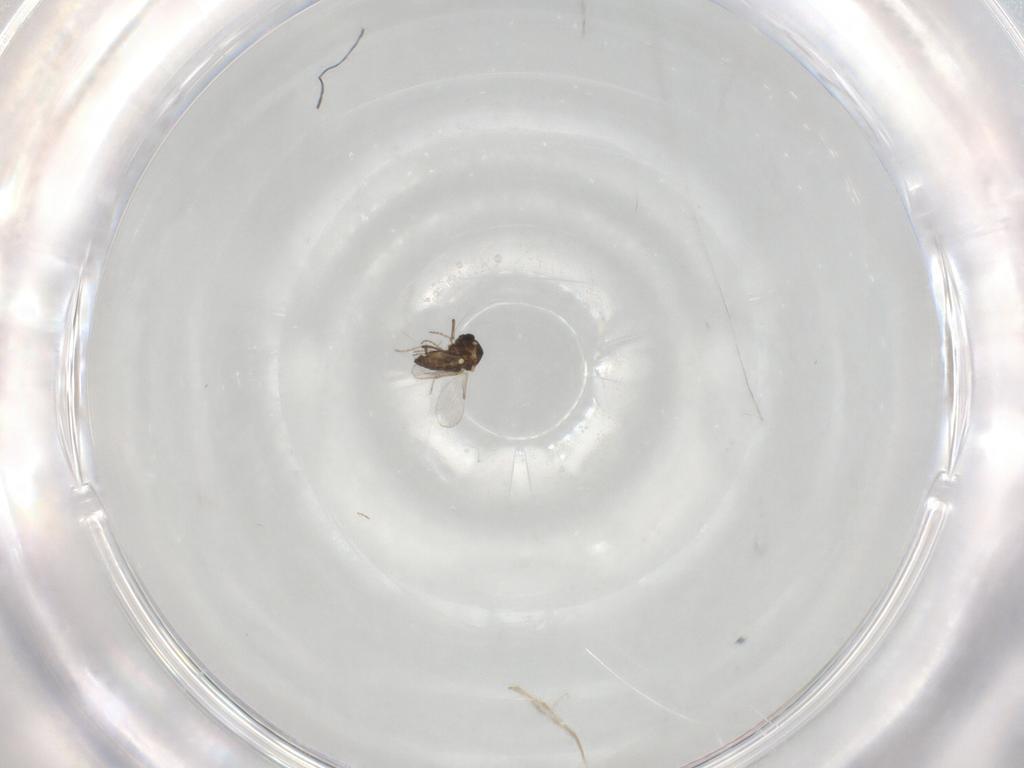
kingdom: Animalia
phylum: Arthropoda
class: Insecta
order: Diptera
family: Ceratopogonidae
